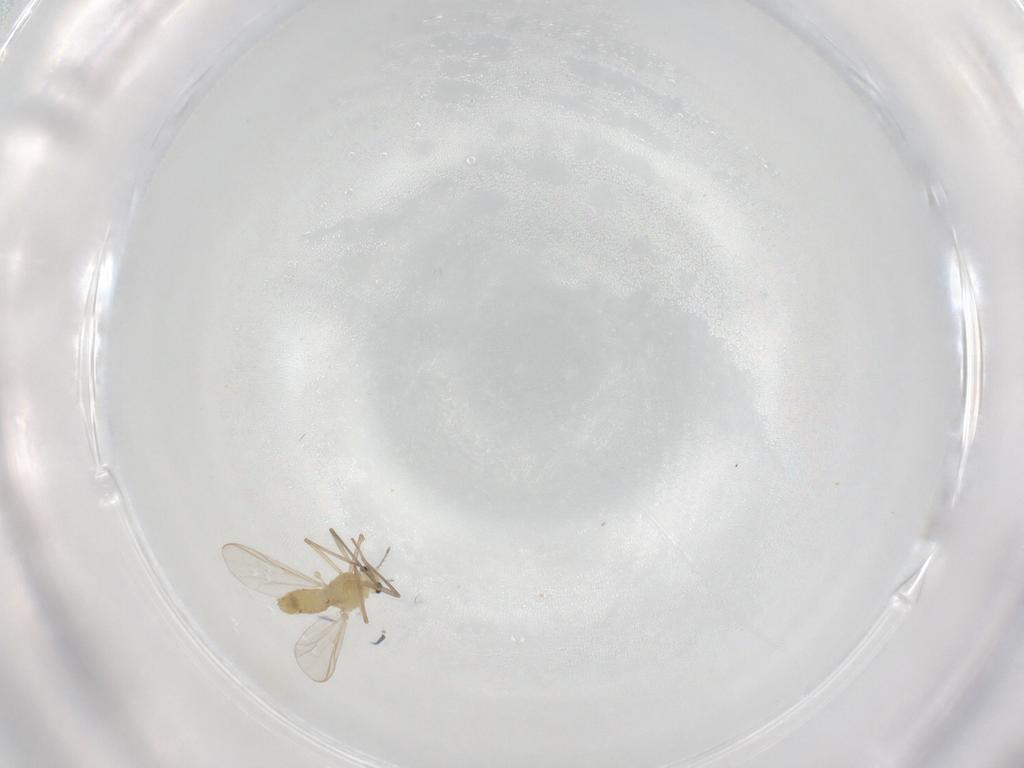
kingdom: Animalia
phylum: Arthropoda
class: Insecta
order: Diptera
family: Chironomidae
